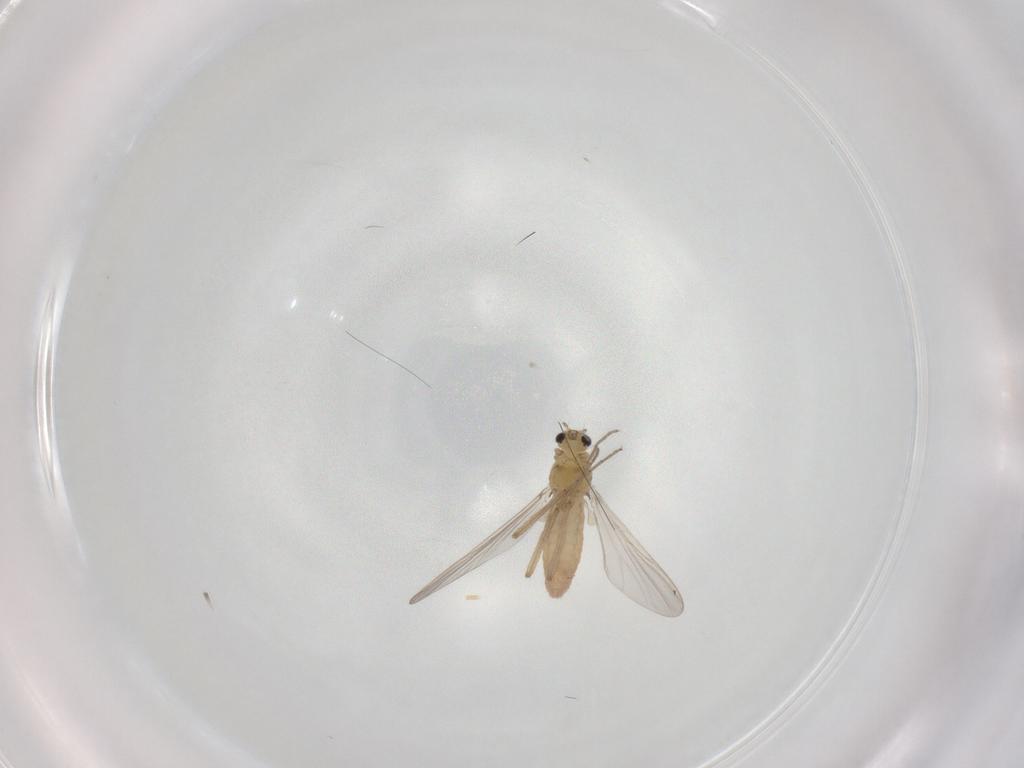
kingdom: Animalia
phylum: Arthropoda
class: Insecta
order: Diptera
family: Chironomidae
